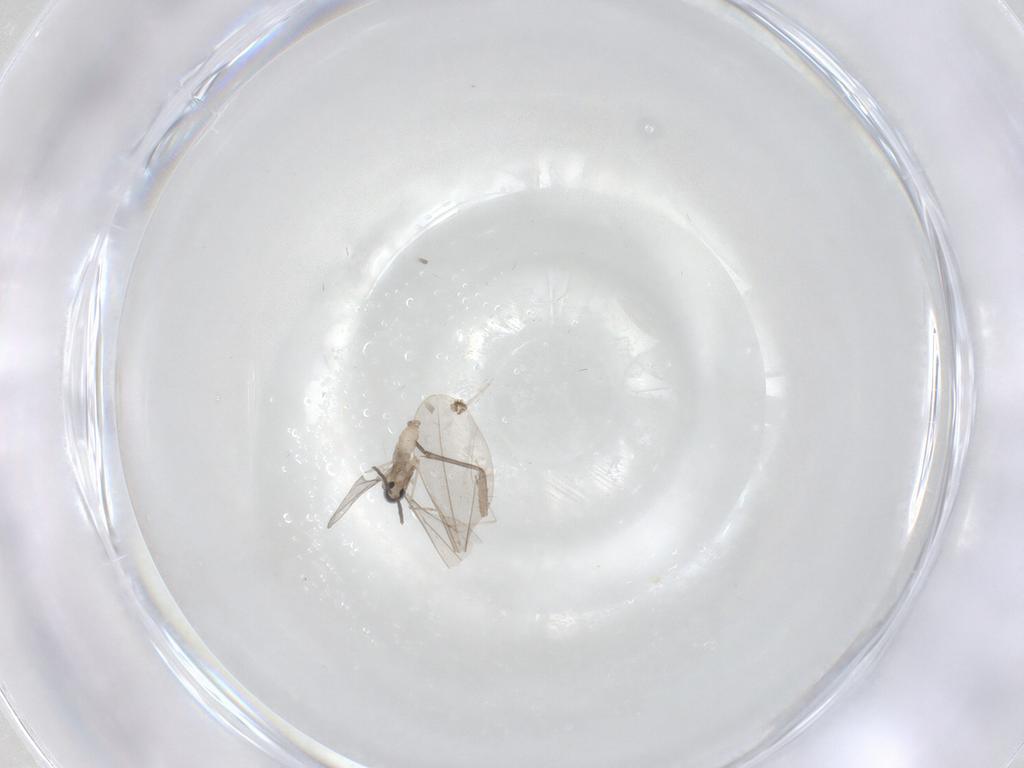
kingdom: Animalia
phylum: Arthropoda
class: Insecta
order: Diptera
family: Cecidomyiidae
